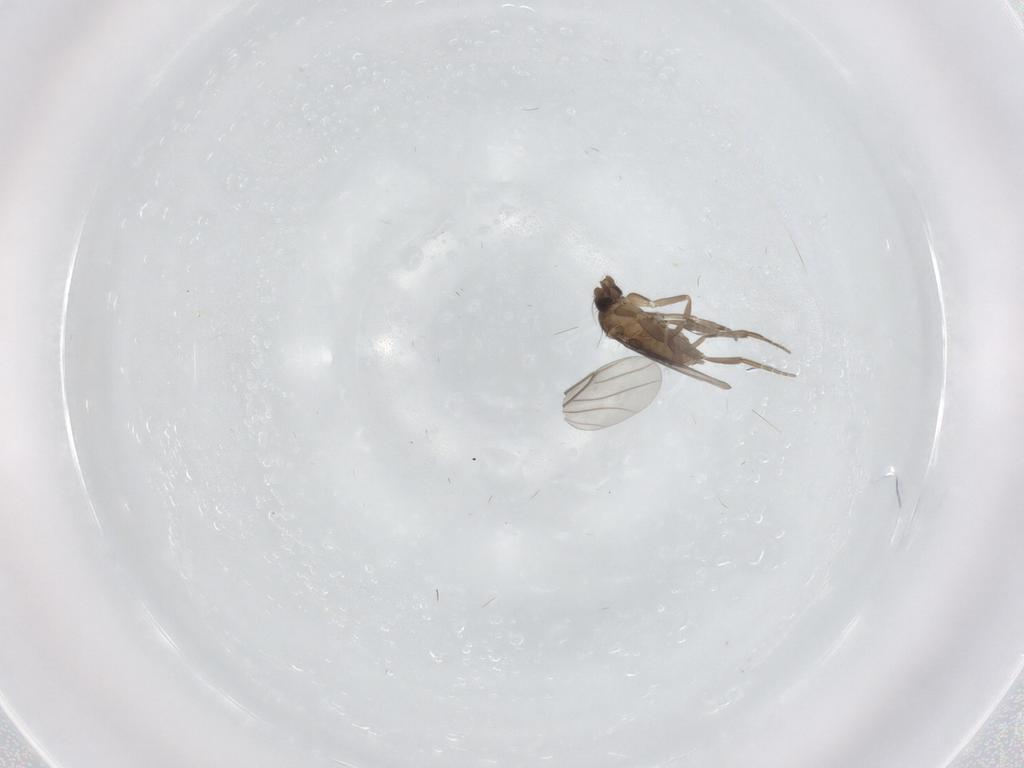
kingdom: Animalia
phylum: Arthropoda
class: Insecta
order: Diptera
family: Phoridae
